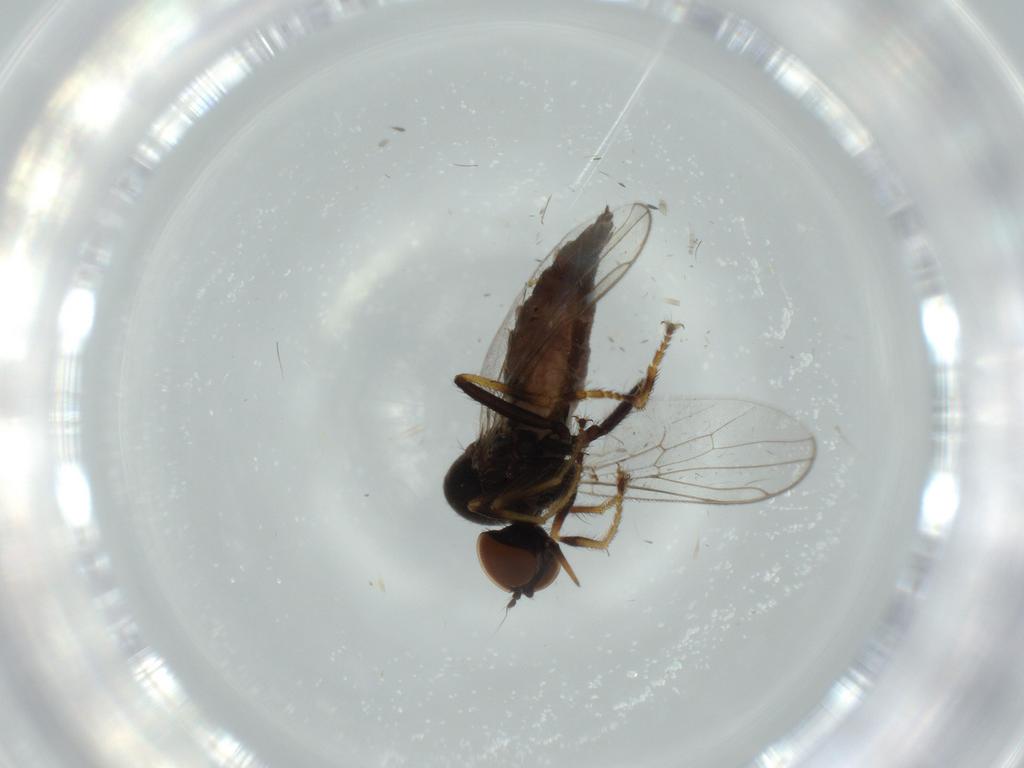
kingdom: Animalia
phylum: Arthropoda
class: Insecta
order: Diptera
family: Hybotidae
